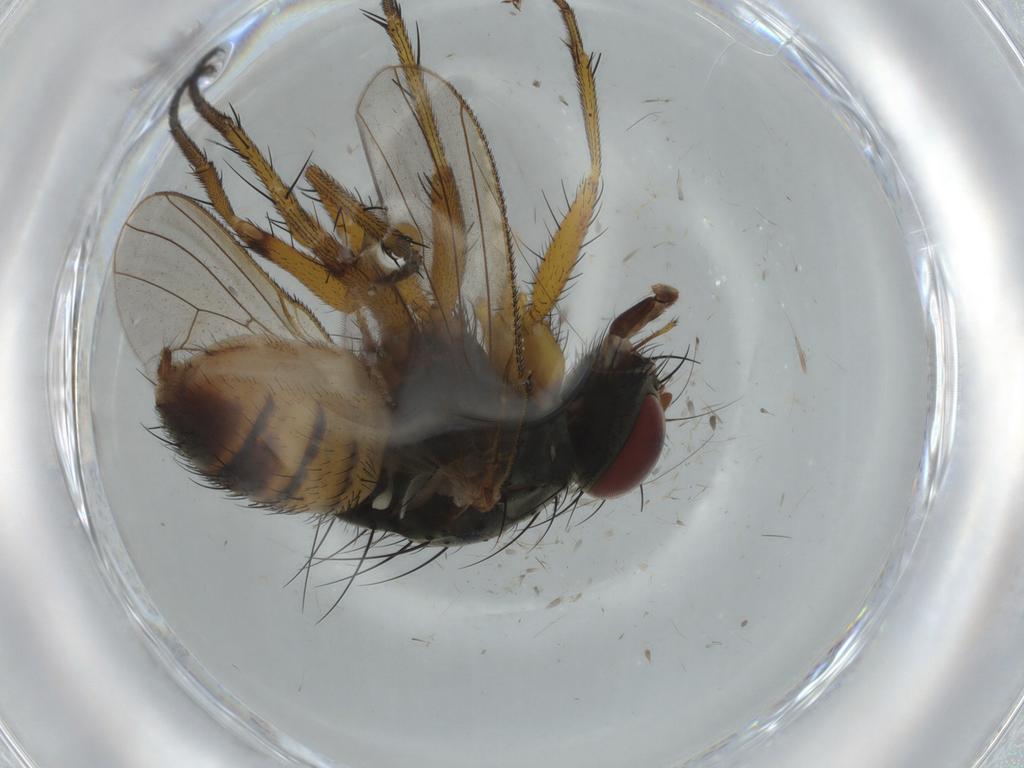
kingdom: Animalia
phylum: Arthropoda
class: Insecta
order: Diptera
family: Muscidae
